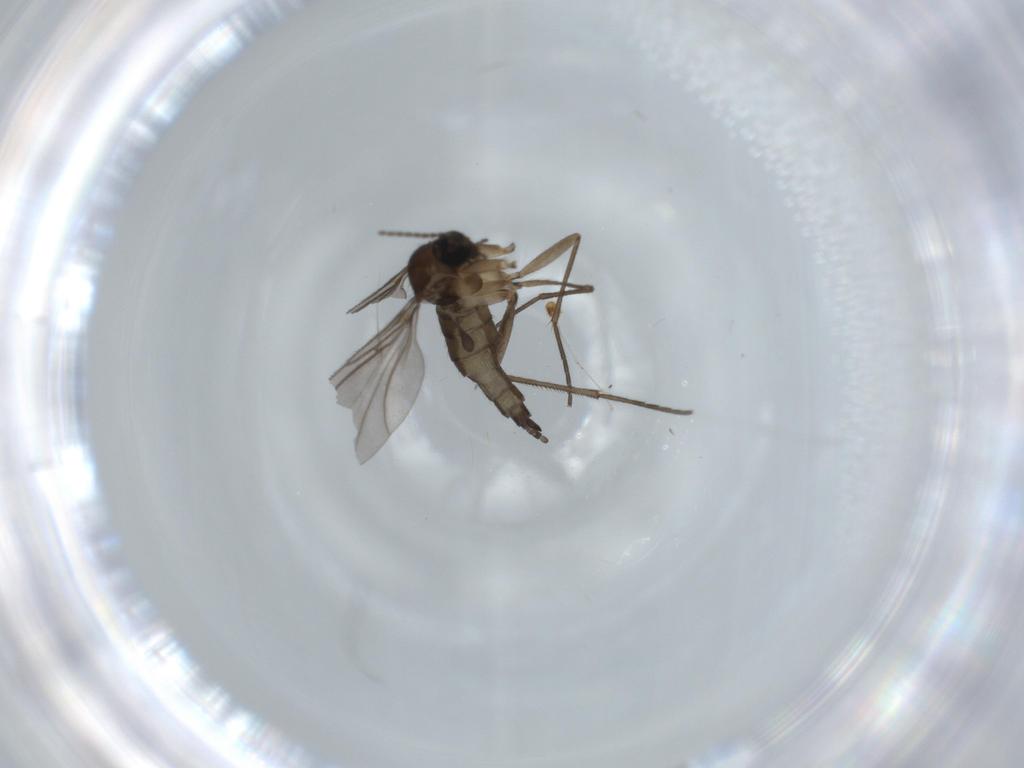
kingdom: Animalia
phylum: Arthropoda
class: Insecta
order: Diptera
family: Sciaridae
